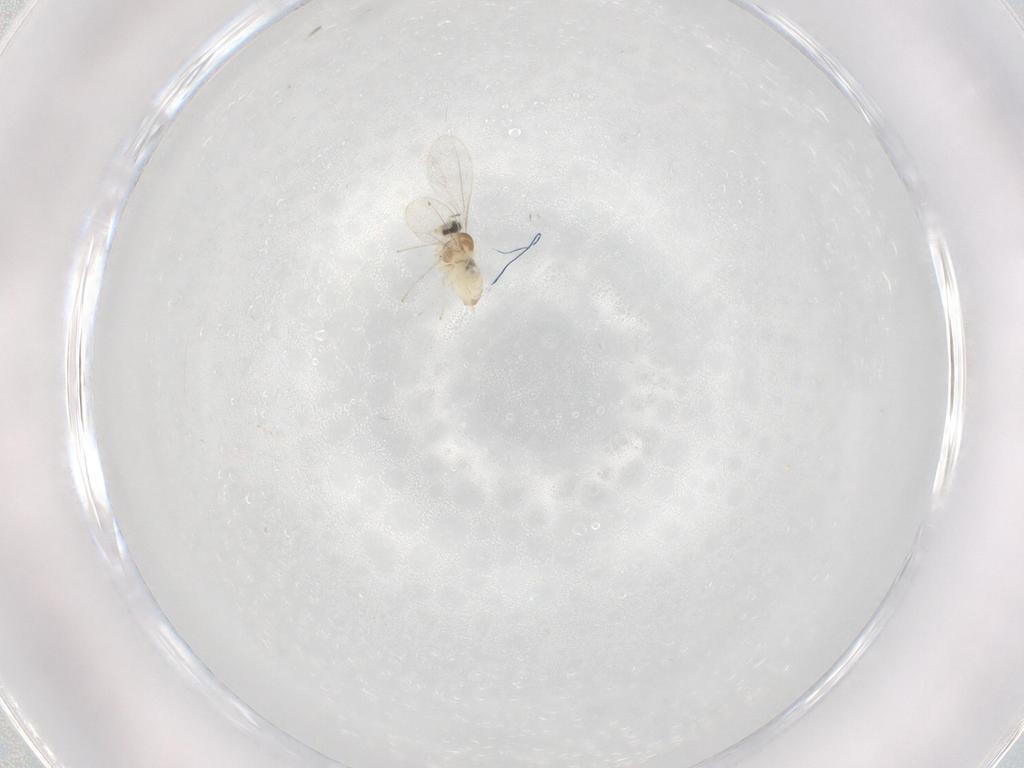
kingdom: Animalia
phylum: Arthropoda
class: Insecta
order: Diptera
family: Cecidomyiidae
